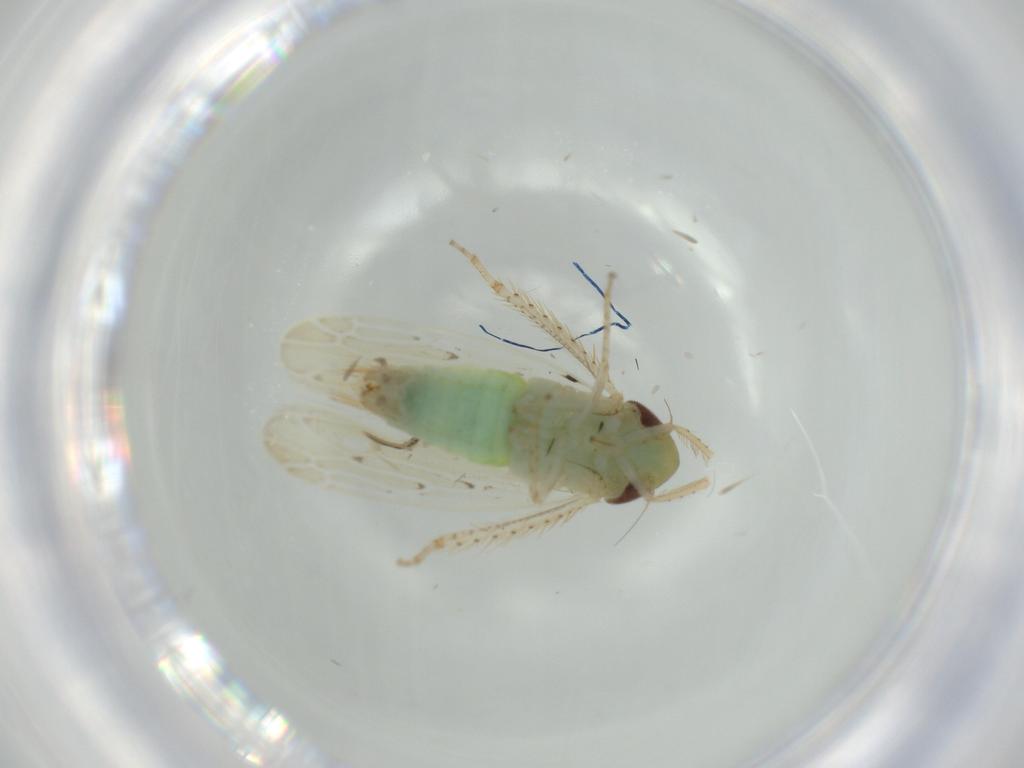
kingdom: Animalia
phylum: Arthropoda
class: Insecta
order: Hemiptera
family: Cicadellidae
